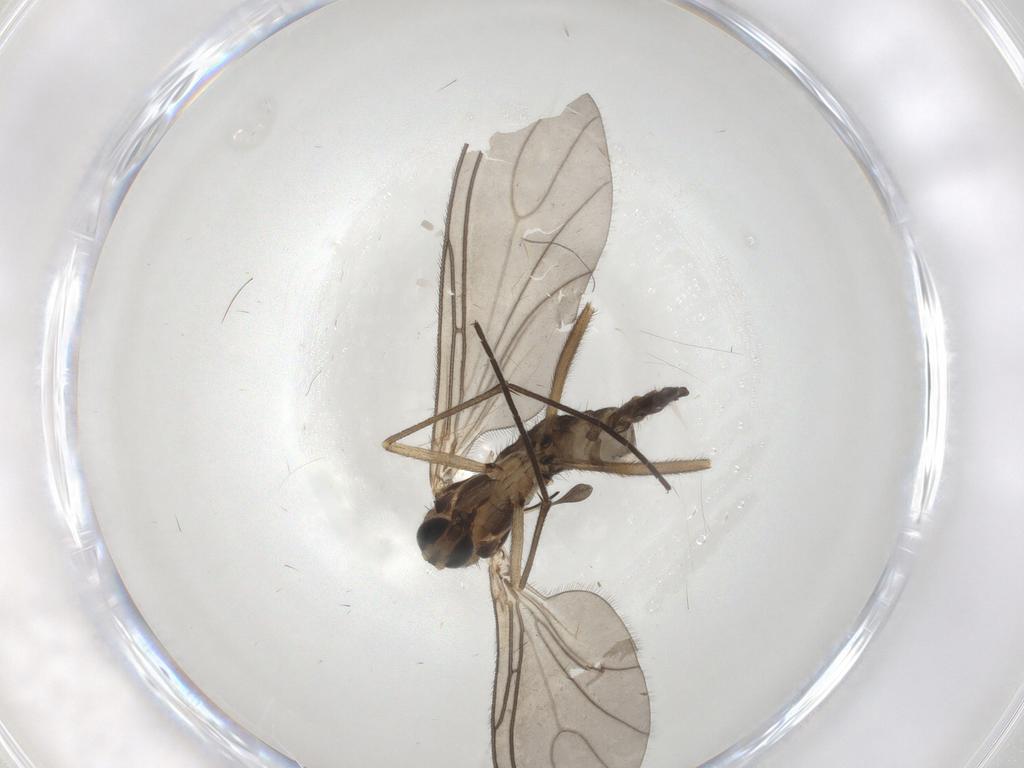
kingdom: Animalia
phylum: Arthropoda
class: Insecta
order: Diptera
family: Sciaridae
